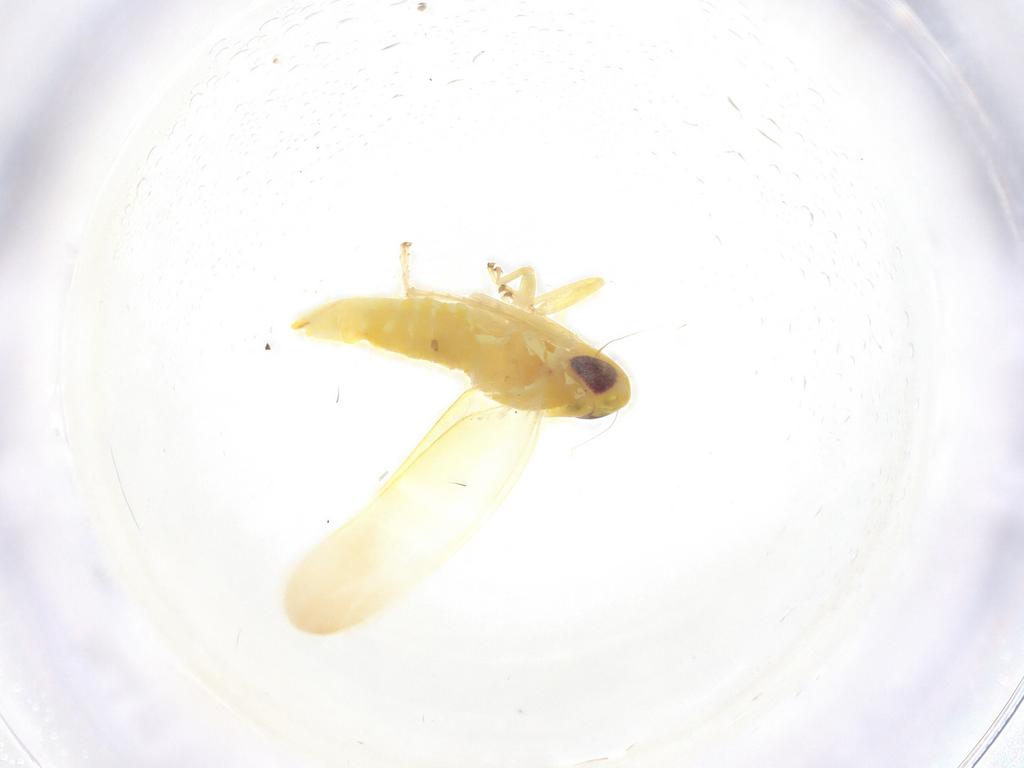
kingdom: Animalia
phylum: Arthropoda
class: Insecta
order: Hemiptera
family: Cicadellidae
